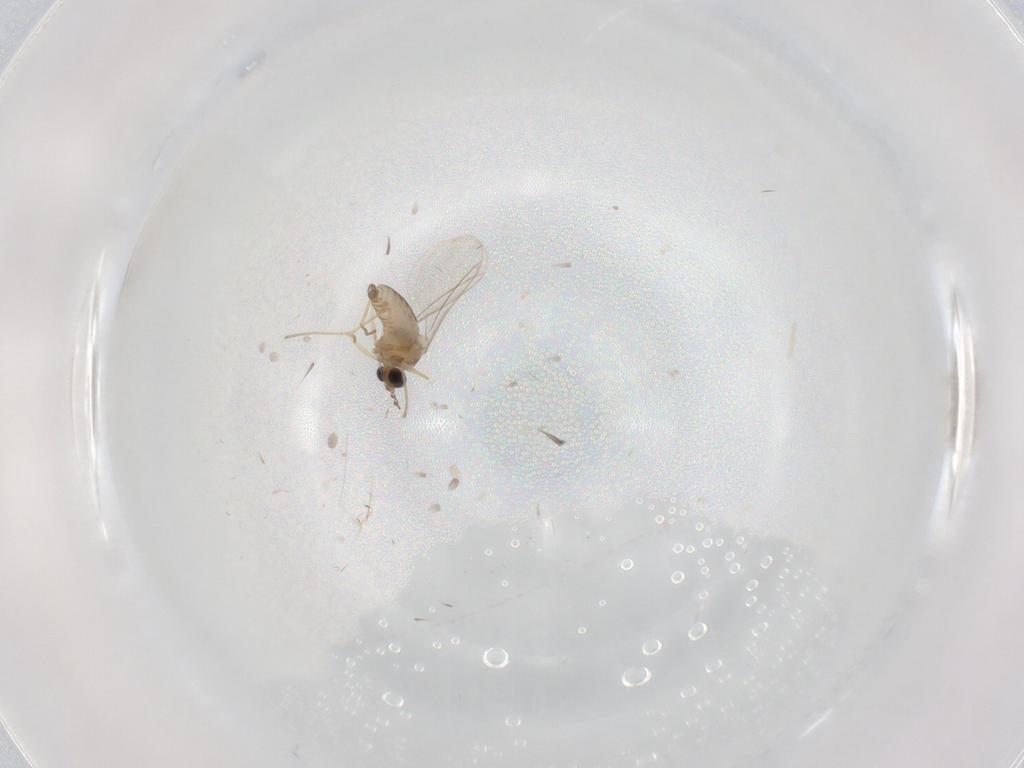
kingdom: Animalia
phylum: Arthropoda
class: Insecta
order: Diptera
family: Cecidomyiidae
